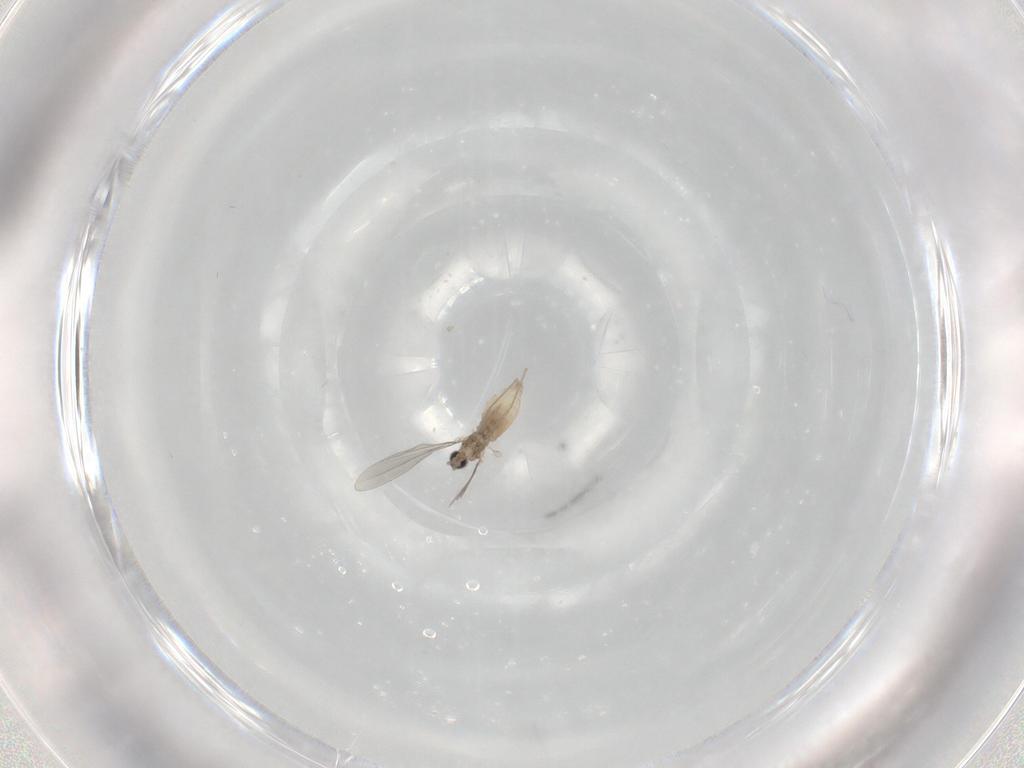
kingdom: Animalia
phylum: Arthropoda
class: Insecta
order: Diptera
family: Cecidomyiidae
